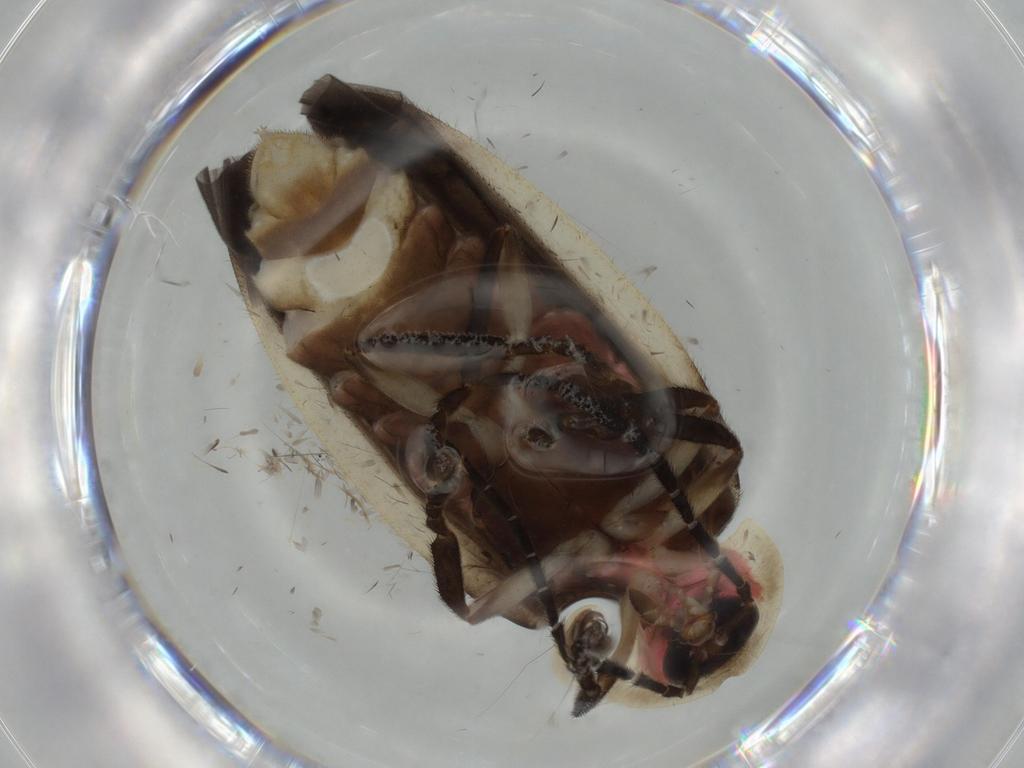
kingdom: Animalia
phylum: Arthropoda
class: Insecta
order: Coleoptera
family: Lampyridae
